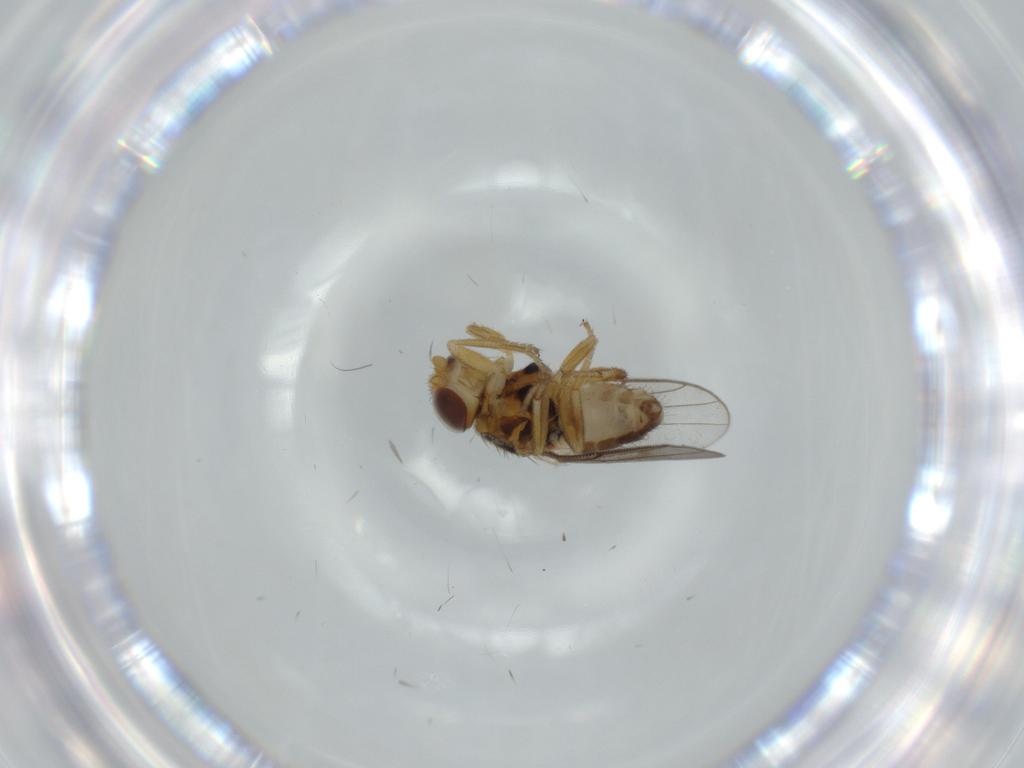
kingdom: Animalia
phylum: Arthropoda
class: Insecta
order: Diptera
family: Chloropidae
